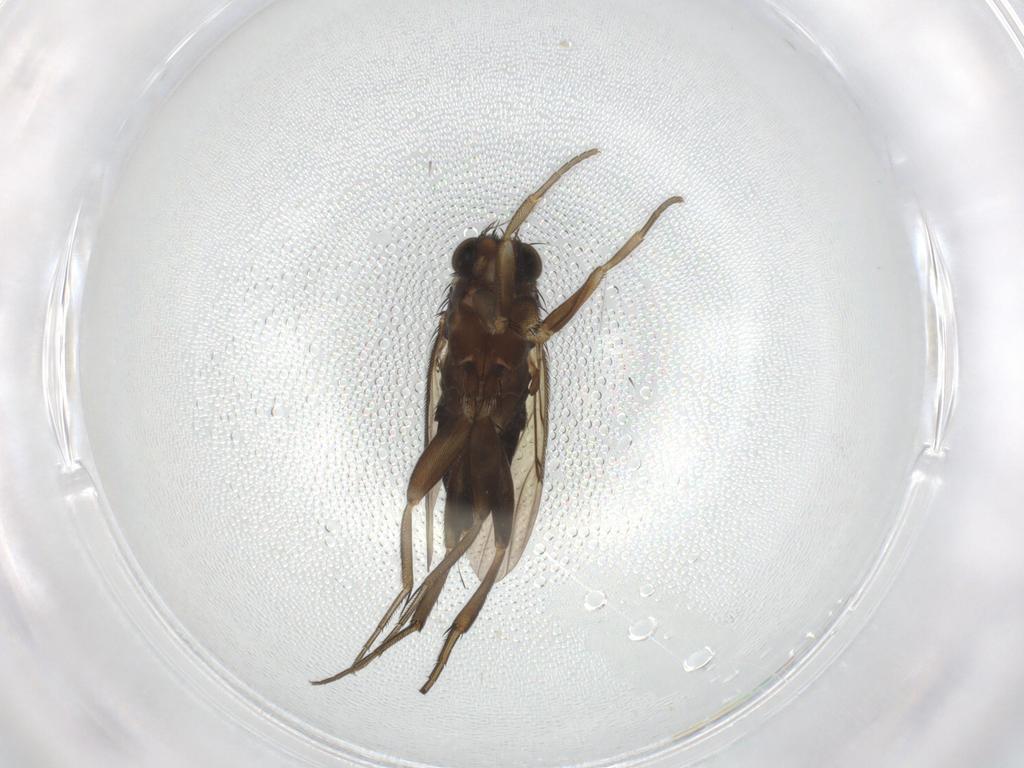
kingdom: Animalia
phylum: Arthropoda
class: Insecta
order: Diptera
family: Phoridae
